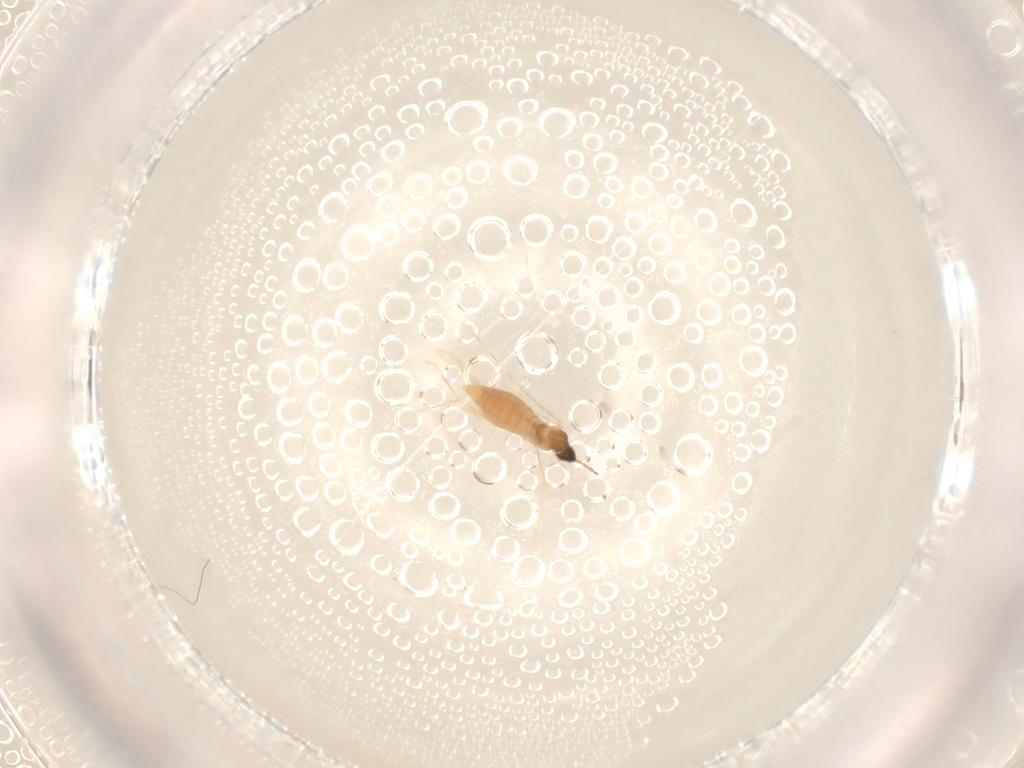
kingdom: Animalia
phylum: Arthropoda
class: Insecta
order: Diptera
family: Cecidomyiidae
